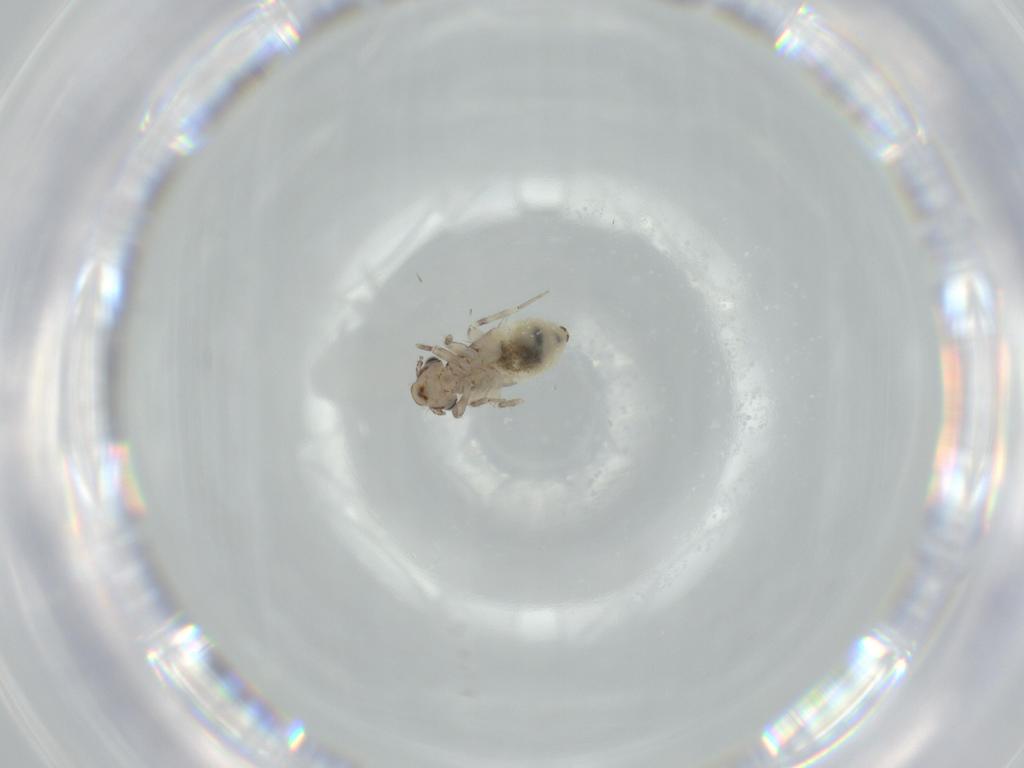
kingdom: Animalia
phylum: Arthropoda
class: Insecta
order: Psocodea
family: Lepidopsocidae
